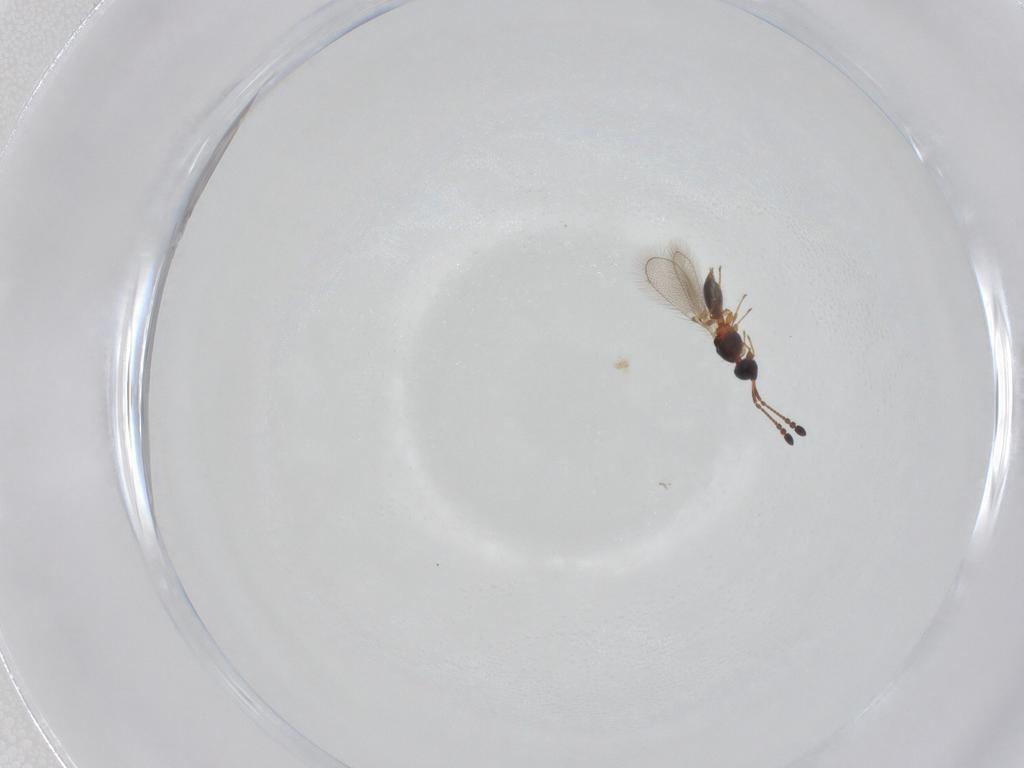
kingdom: Animalia
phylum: Arthropoda
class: Insecta
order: Hymenoptera
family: Diapriidae
